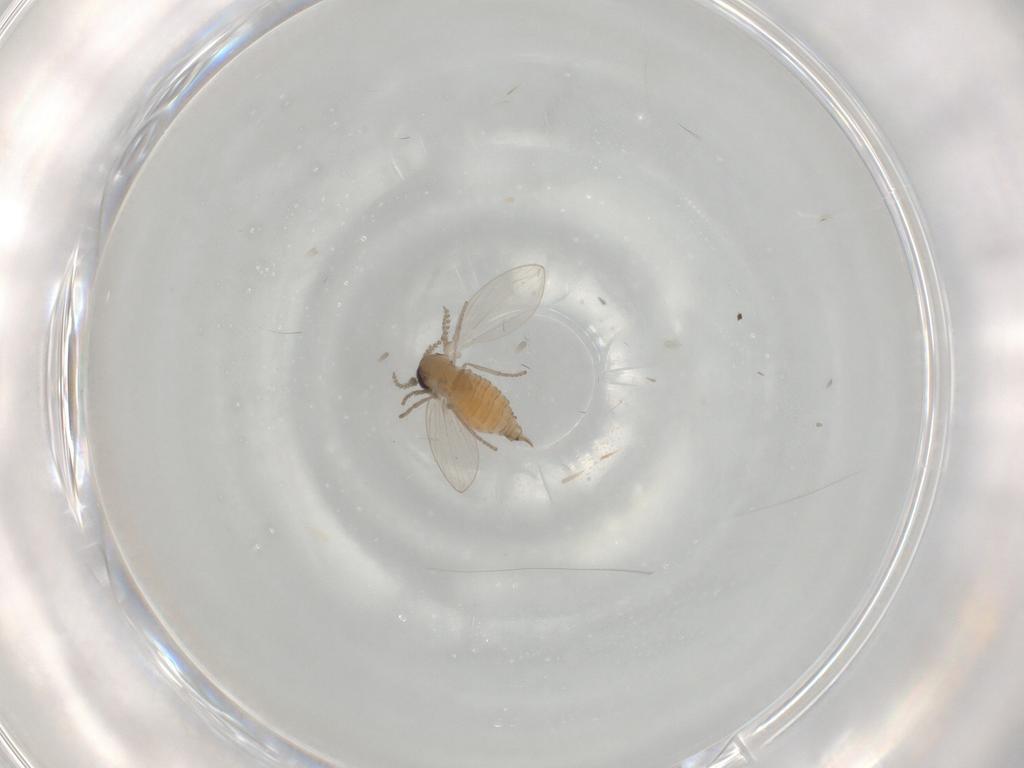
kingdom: Animalia
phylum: Arthropoda
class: Insecta
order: Diptera
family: Psychodidae
